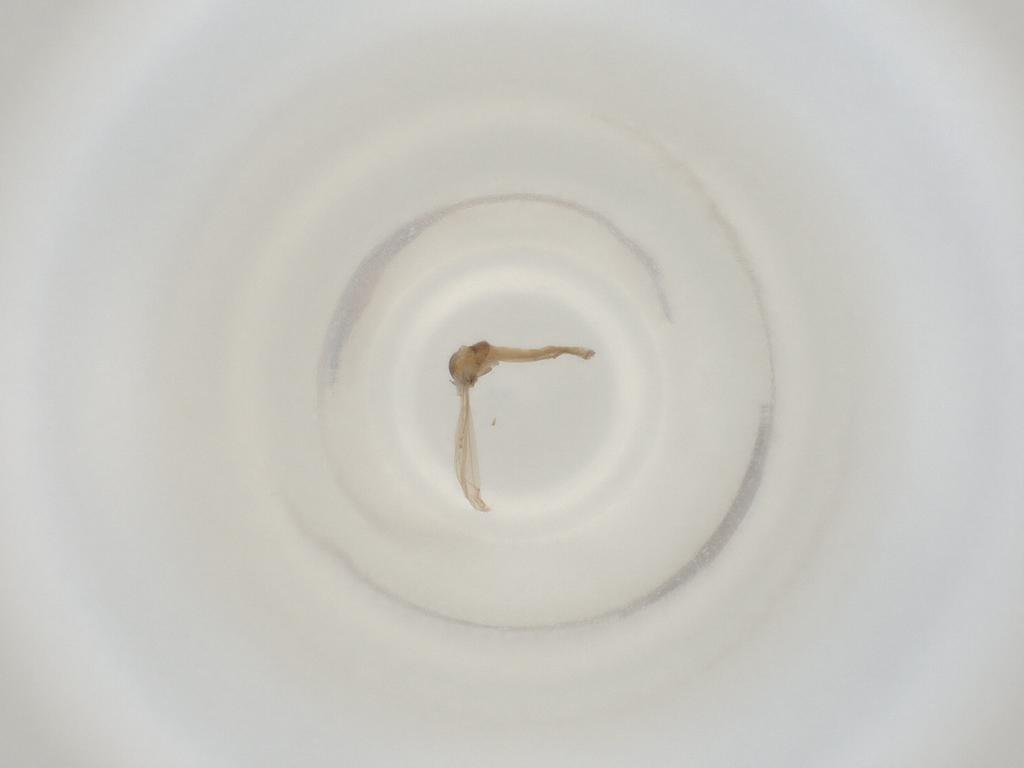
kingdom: Animalia
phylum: Arthropoda
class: Insecta
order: Diptera
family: Cecidomyiidae
